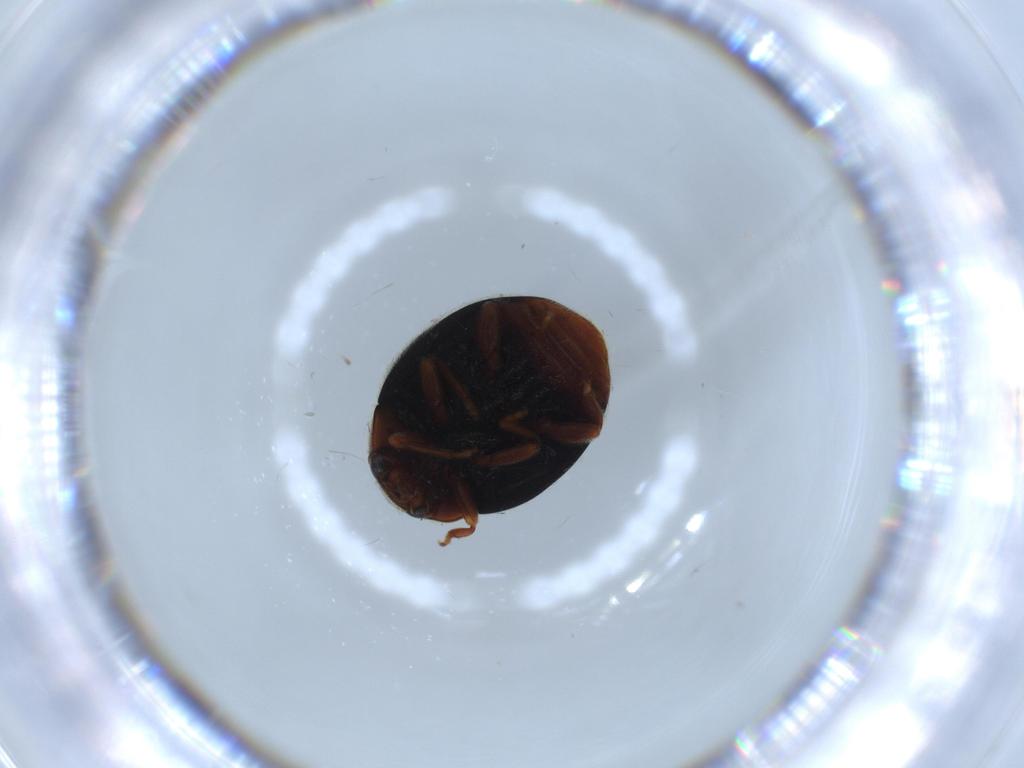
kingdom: Animalia
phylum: Arthropoda
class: Insecta
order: Coleoptera
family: Coccinellidae
